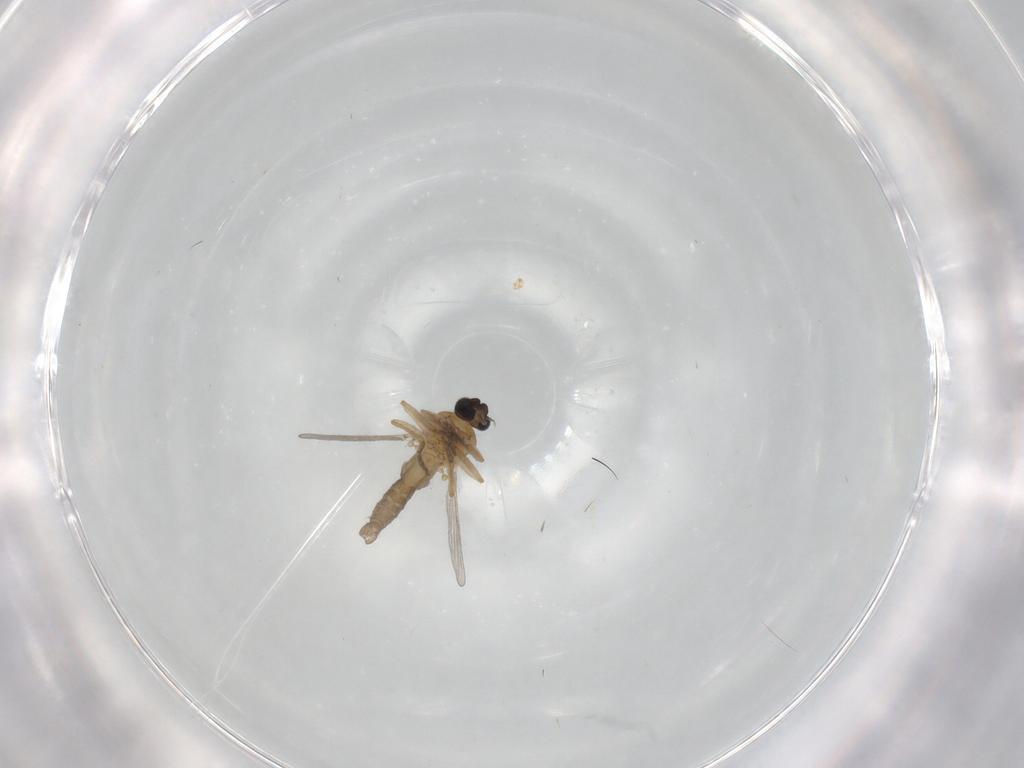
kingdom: Animalia
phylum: Arthropoda
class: Insecta
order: Diptera
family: Ceratopogonidae
